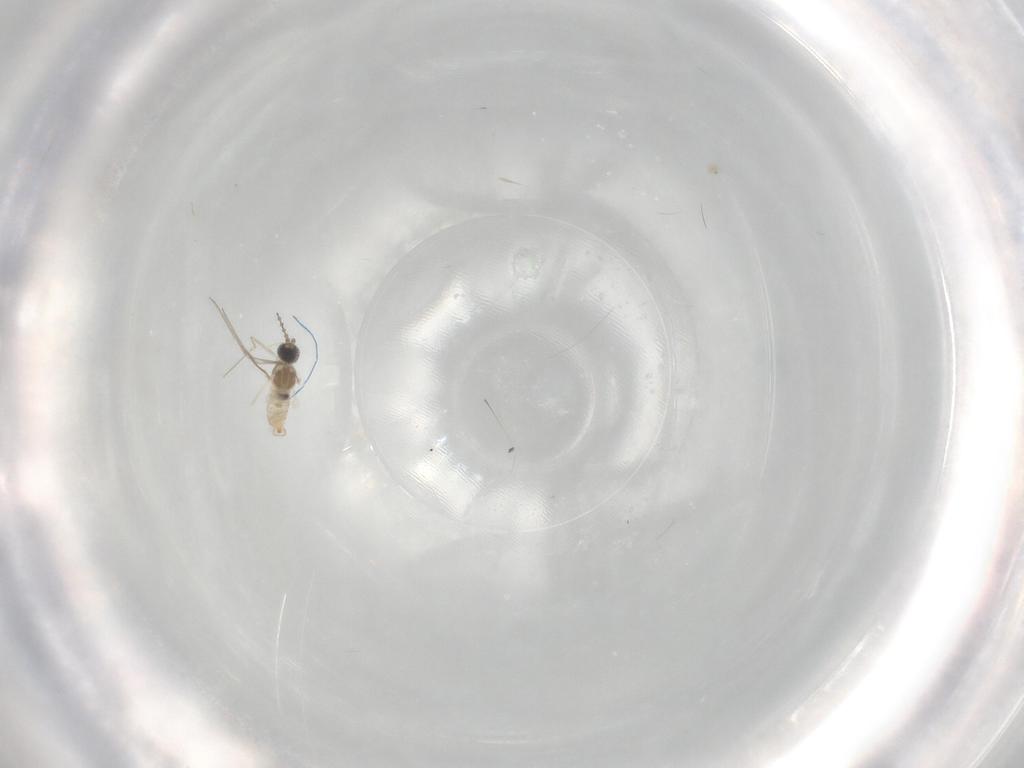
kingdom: Animalia
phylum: Arthropoda
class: Insecta
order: Diptera
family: Cecidomyiidae
